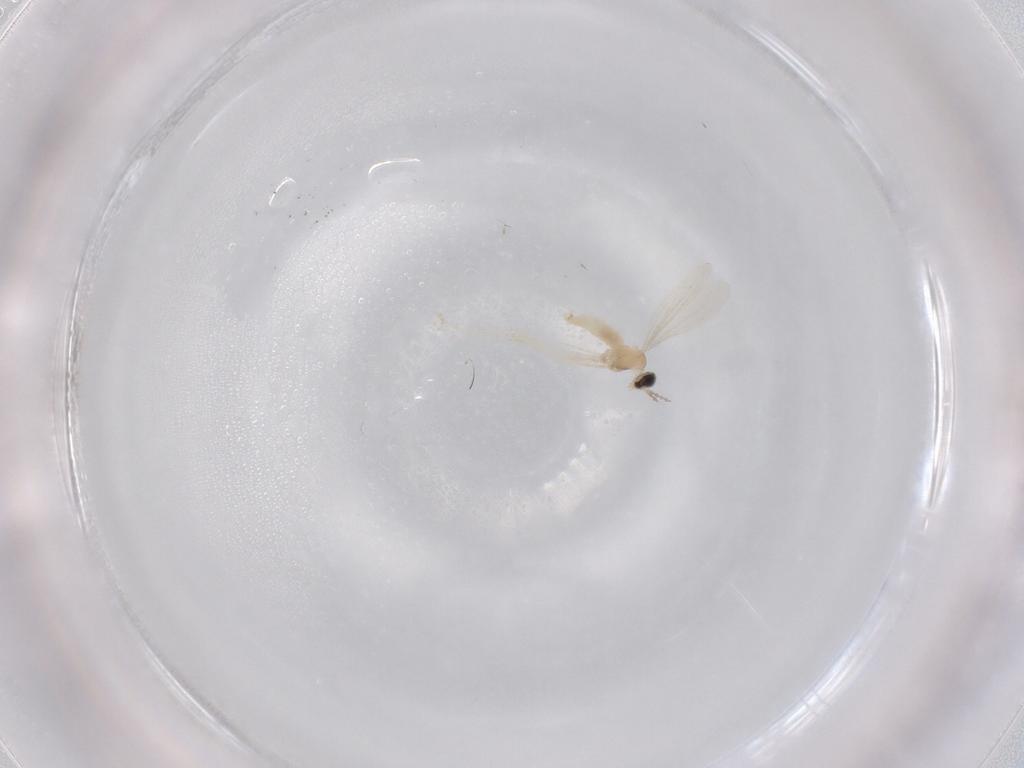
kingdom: Animalia
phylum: Arthropoda
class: Insecta
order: Diptera
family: Cecidomyiidae
